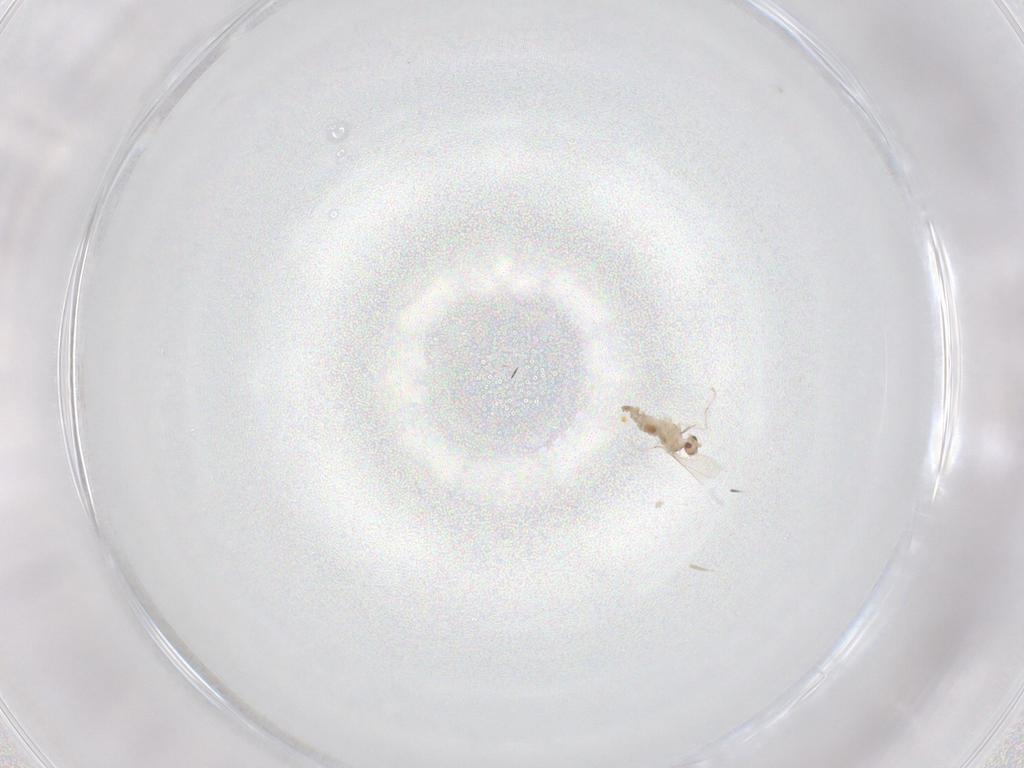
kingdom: Animalia
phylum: Arthropoda
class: Insecta
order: Diptera
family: Cecidomyiidae
